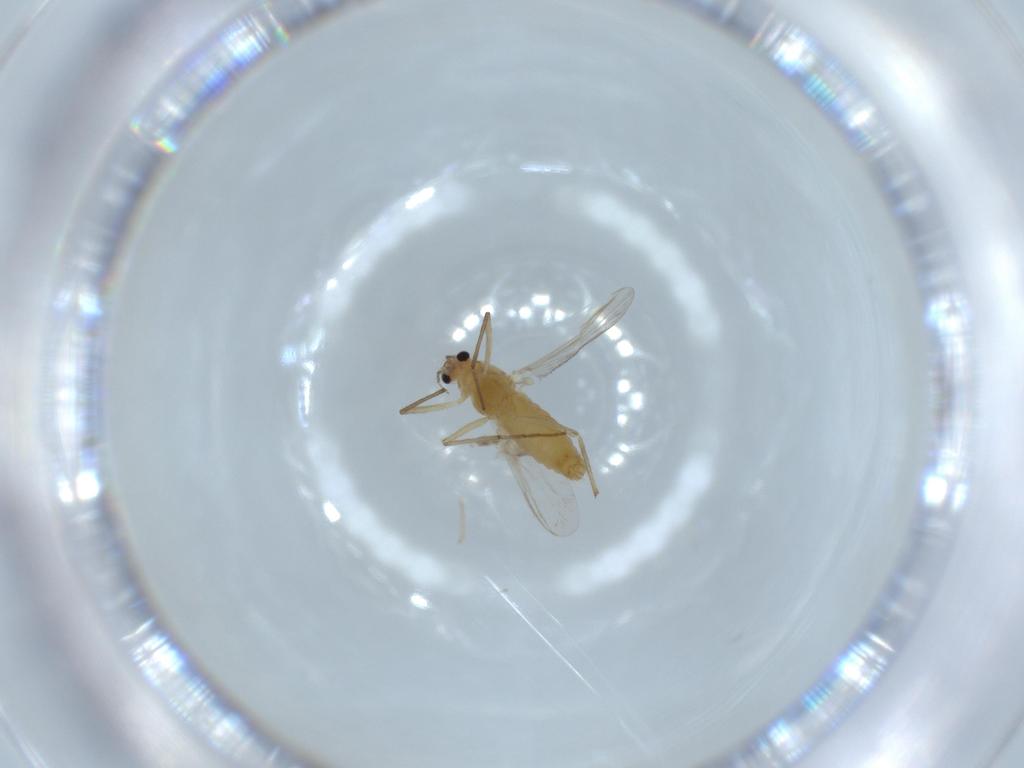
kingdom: Animalia
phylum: Arthropoda
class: Insecta
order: Diptera
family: Chironomidae
